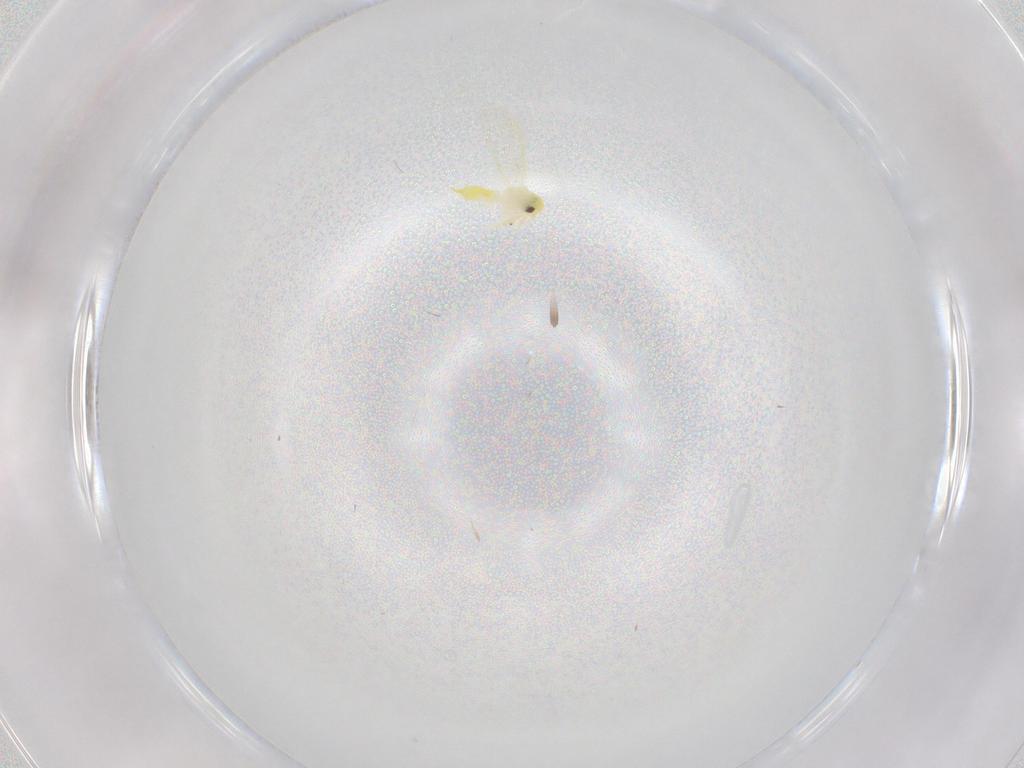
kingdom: Animalia
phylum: Arthropoda
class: Insecta
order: Hemiptera
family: Aleyrodidae
